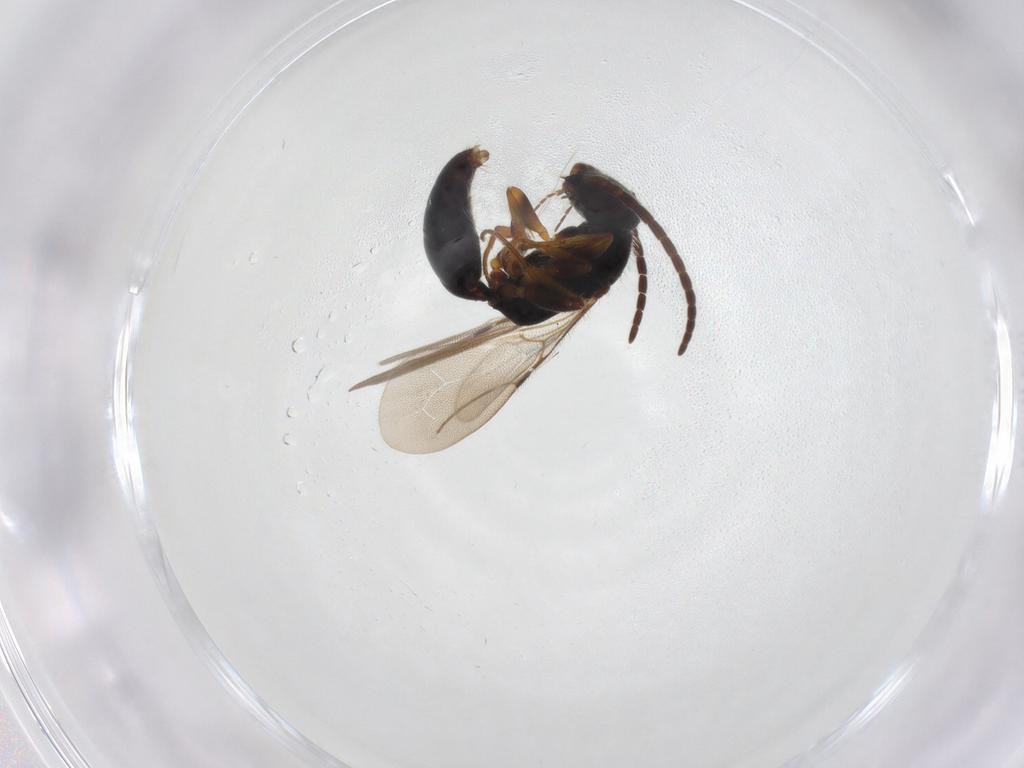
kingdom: Animalia
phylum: Arthropoda
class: Insecta
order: Hymenoptera
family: Bethylidae
